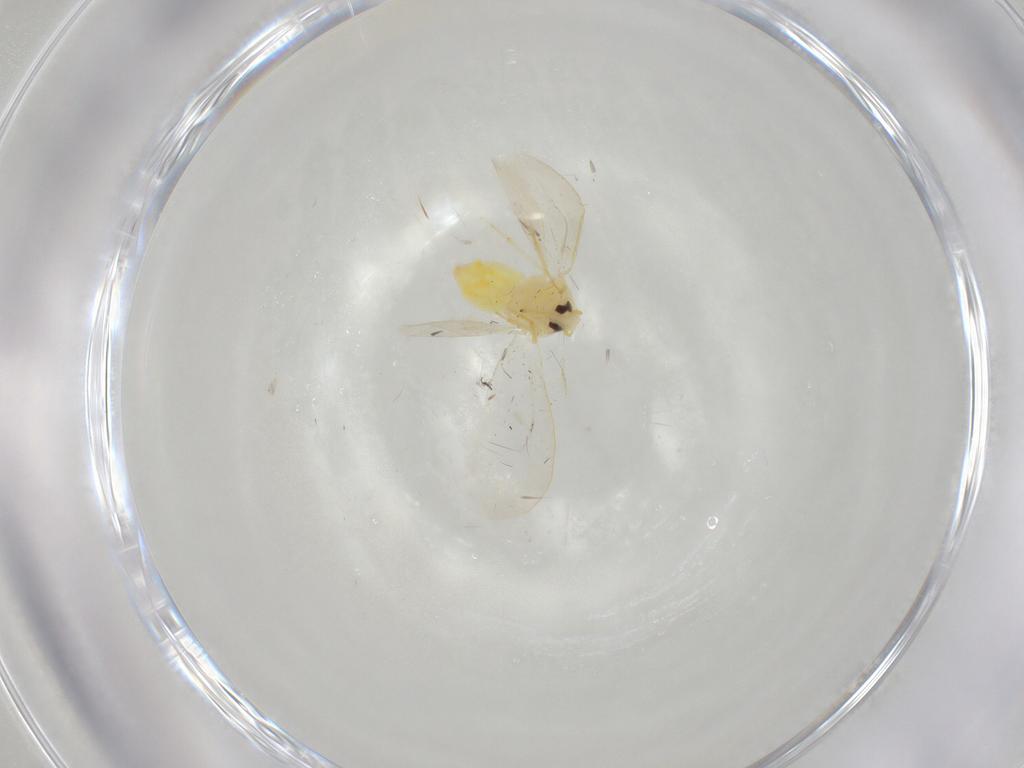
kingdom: Animalia
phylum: Arthropoda
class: Insecta
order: Hemiptera
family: Aleyrodidae
